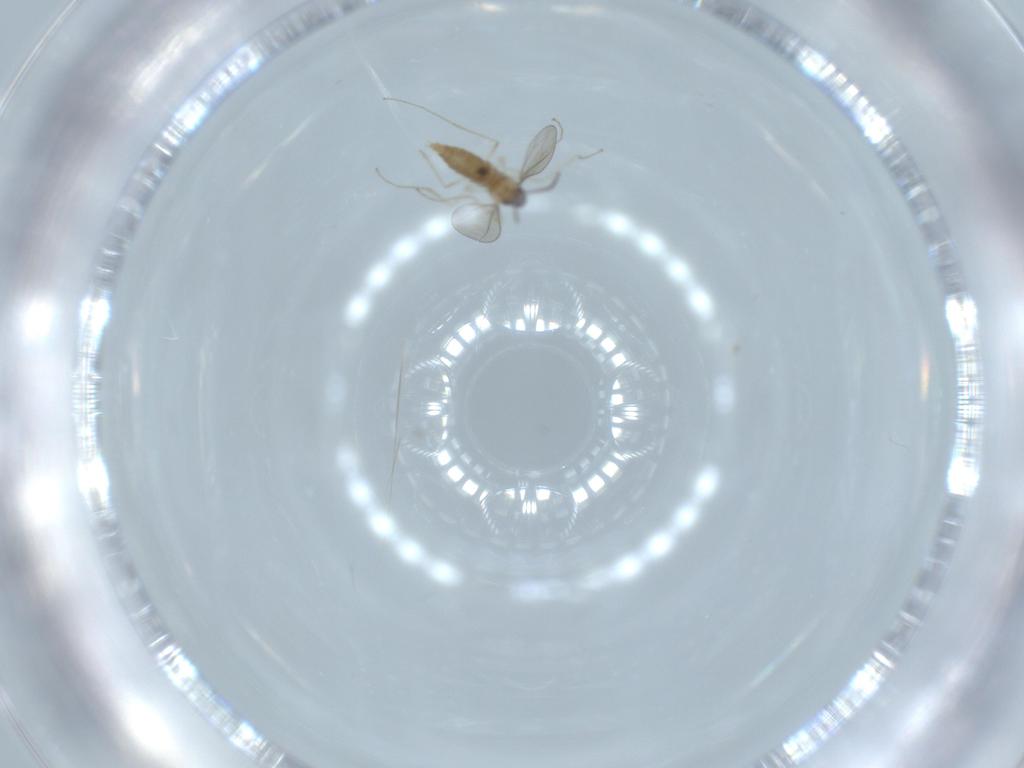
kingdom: Animalia
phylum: Arthropoda
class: Insecta
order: Diptera
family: Cecidomyiidae
